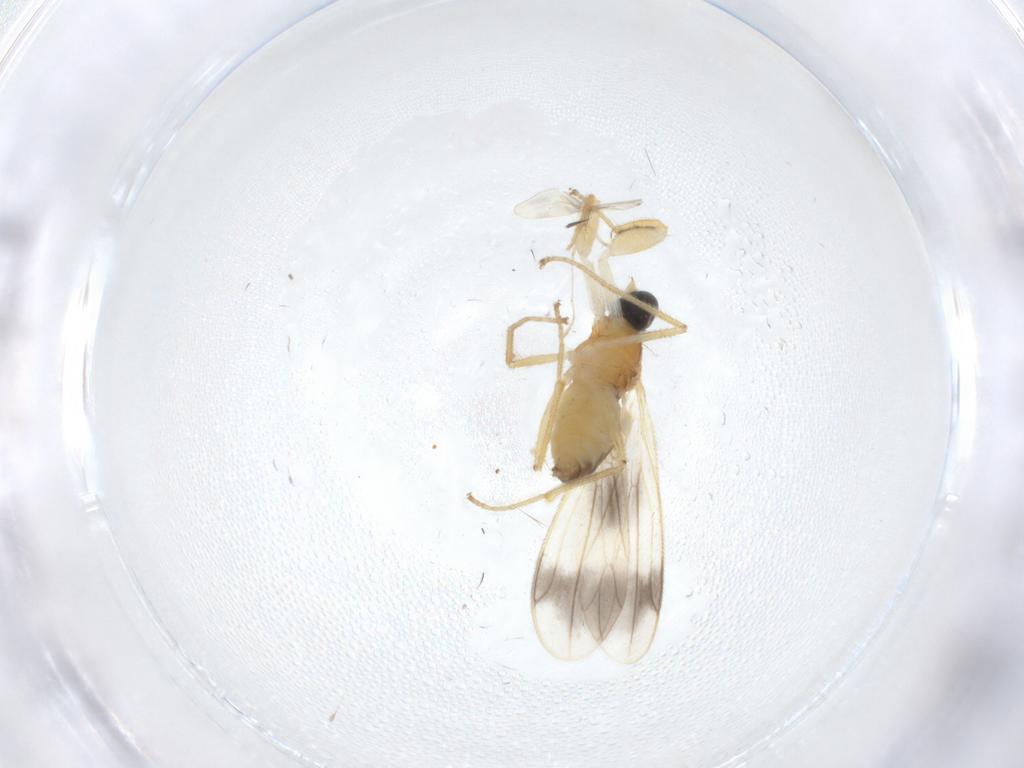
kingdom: Animalia
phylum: Arthropoda
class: Insecta
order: Diptera
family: Empididae
